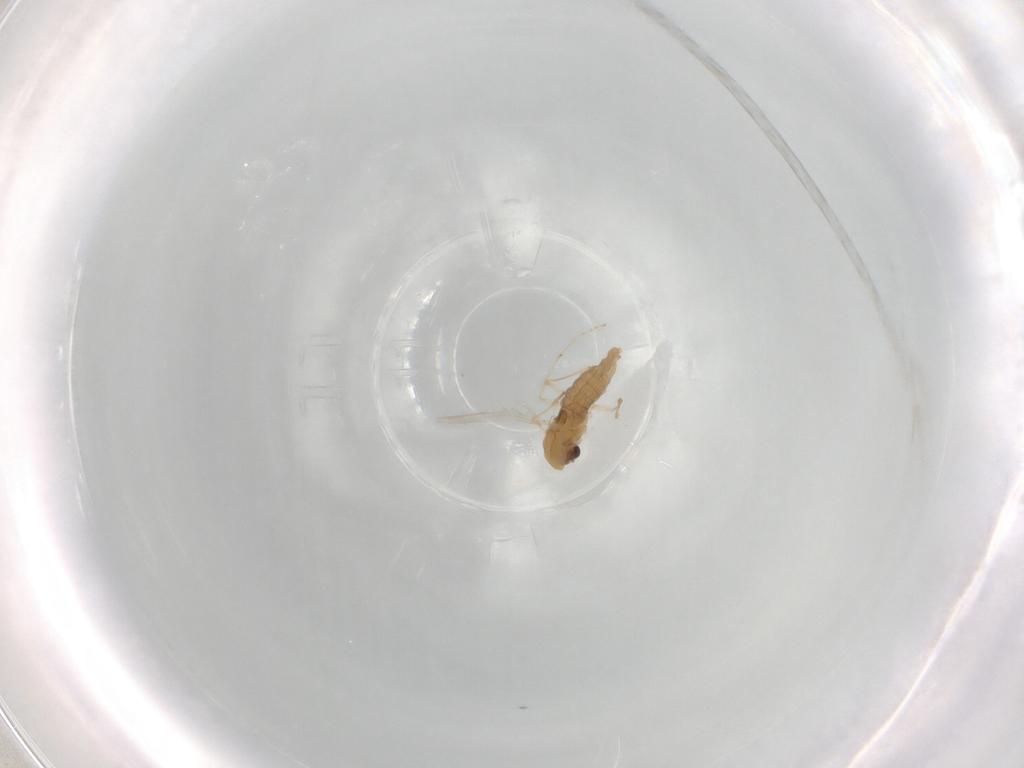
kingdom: Animalia
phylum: Arthropoda
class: Insecta
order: Diptera
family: Chironomidae
